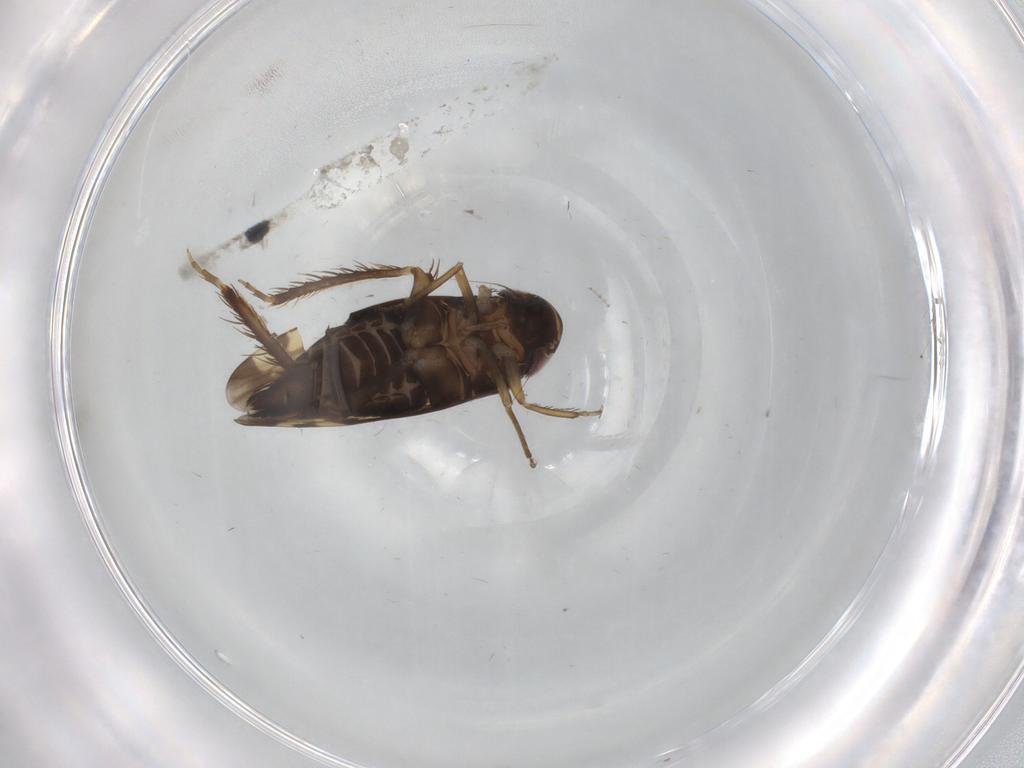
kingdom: Animalia
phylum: Arthropoda
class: Insecta
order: Hemiptera
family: Cicadellidae
